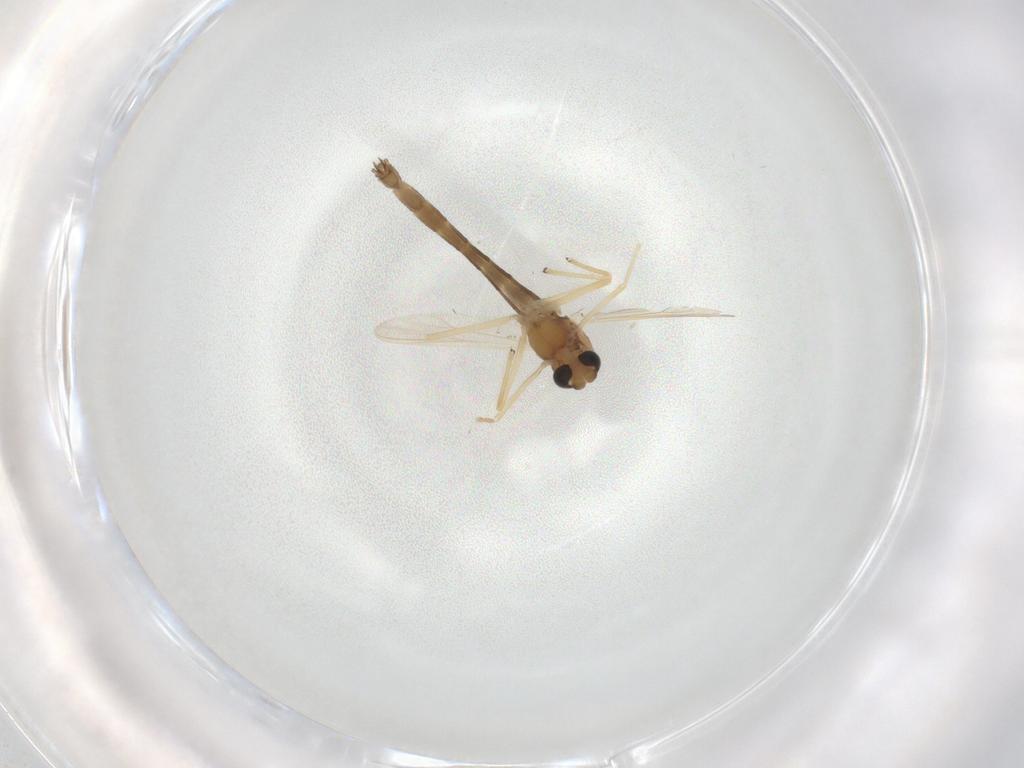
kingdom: Animalia
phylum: Arthropoda
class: Insecta
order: Diptera
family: Chironomidae
